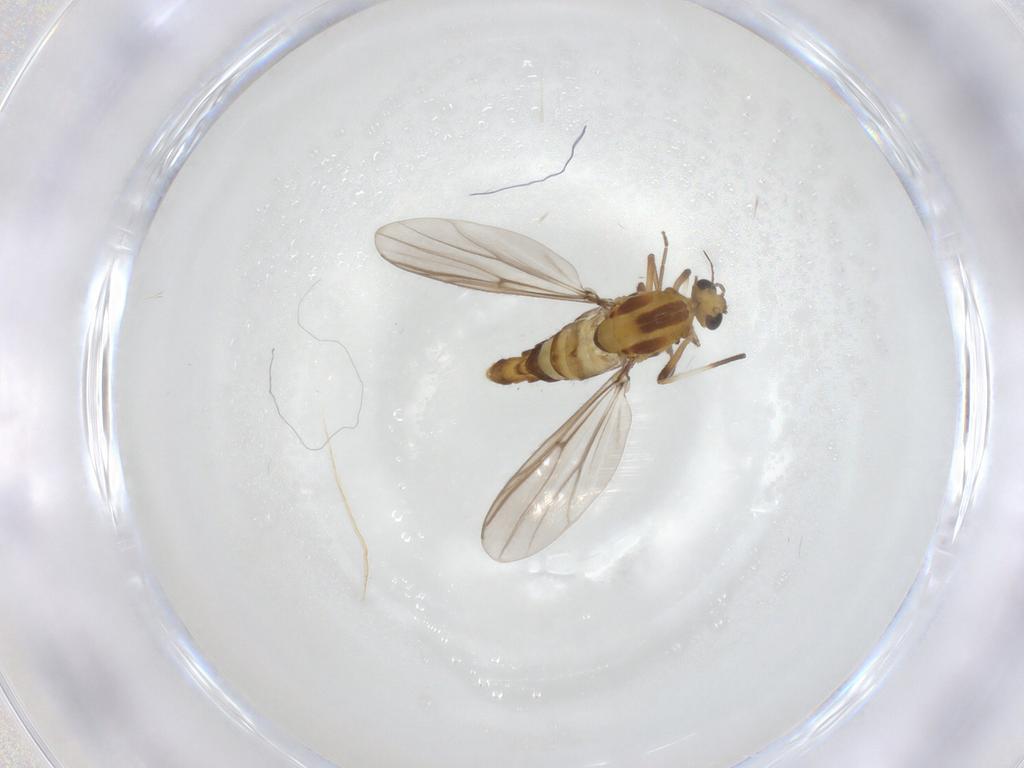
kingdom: Animalia
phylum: Arthropoda
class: Insecta
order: Diptera
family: Chironomidae
